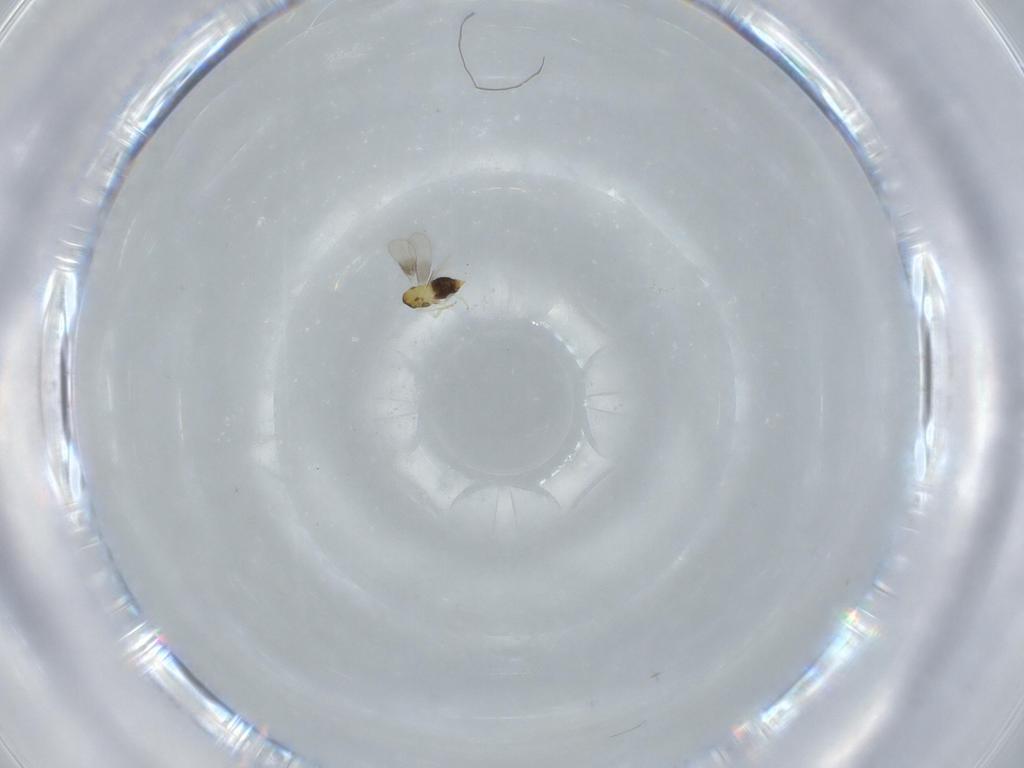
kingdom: Animalia
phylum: Arthropoda
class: Insecta
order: Hymenoptera
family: Aphelinidae
